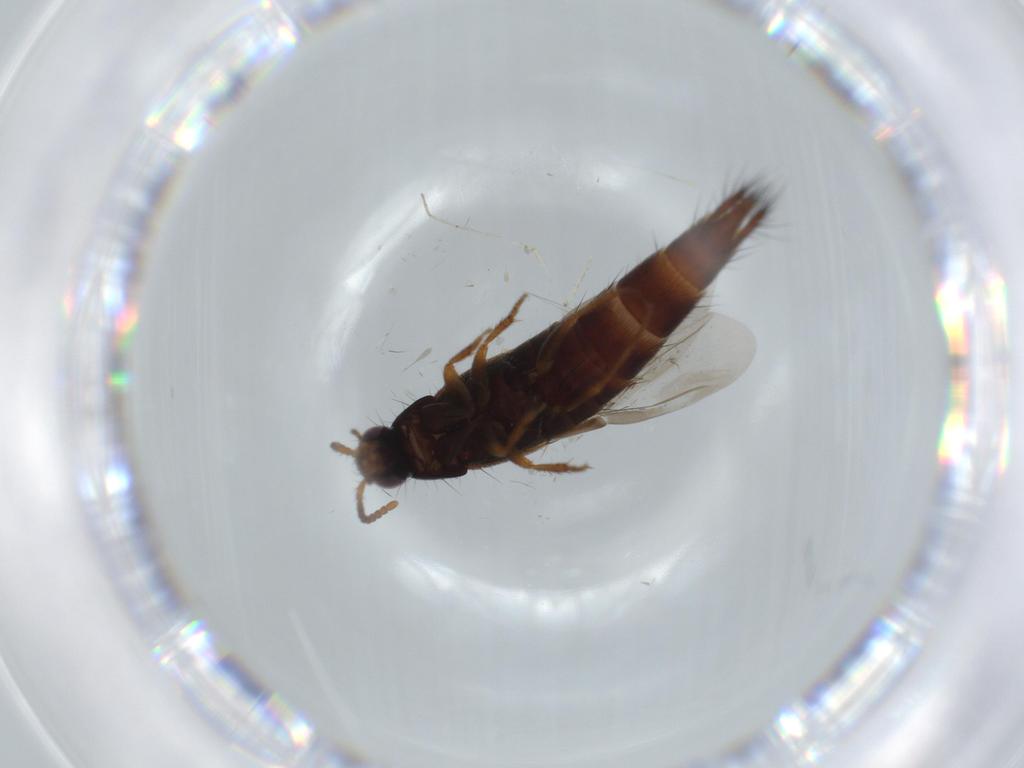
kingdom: Animalia
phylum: Arthropoda
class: Insecta
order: Coleoptera
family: Staphylinidae
